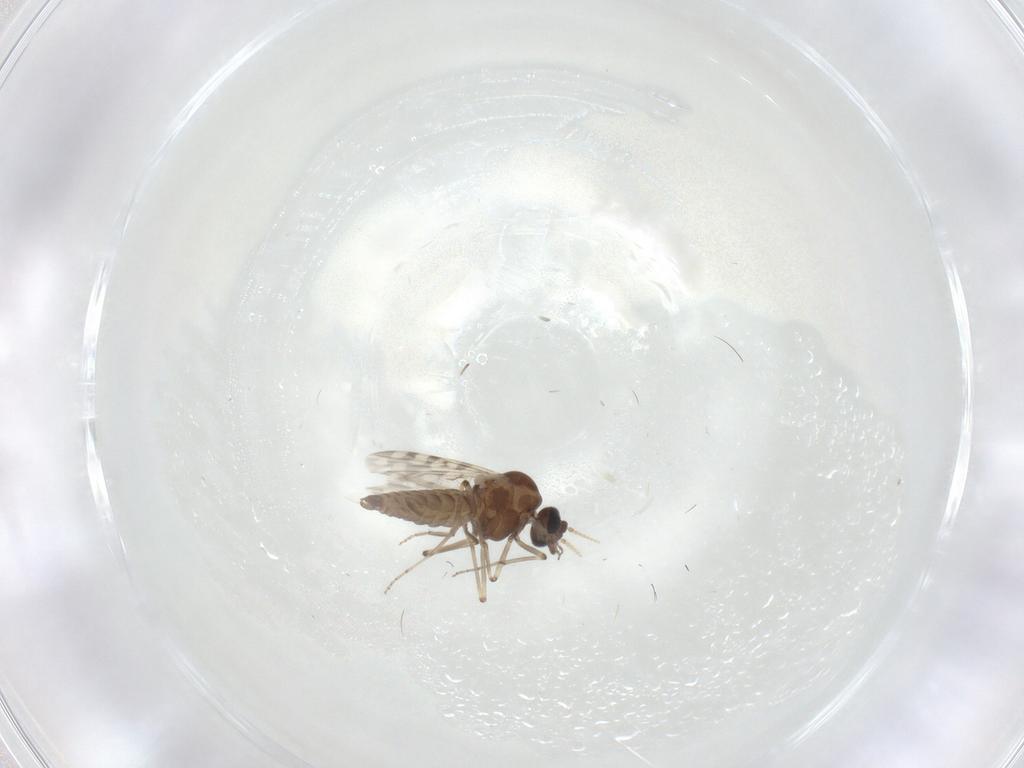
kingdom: Animalia
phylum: Arthropoda
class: Insecta
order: Diptera
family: Chironomidae
